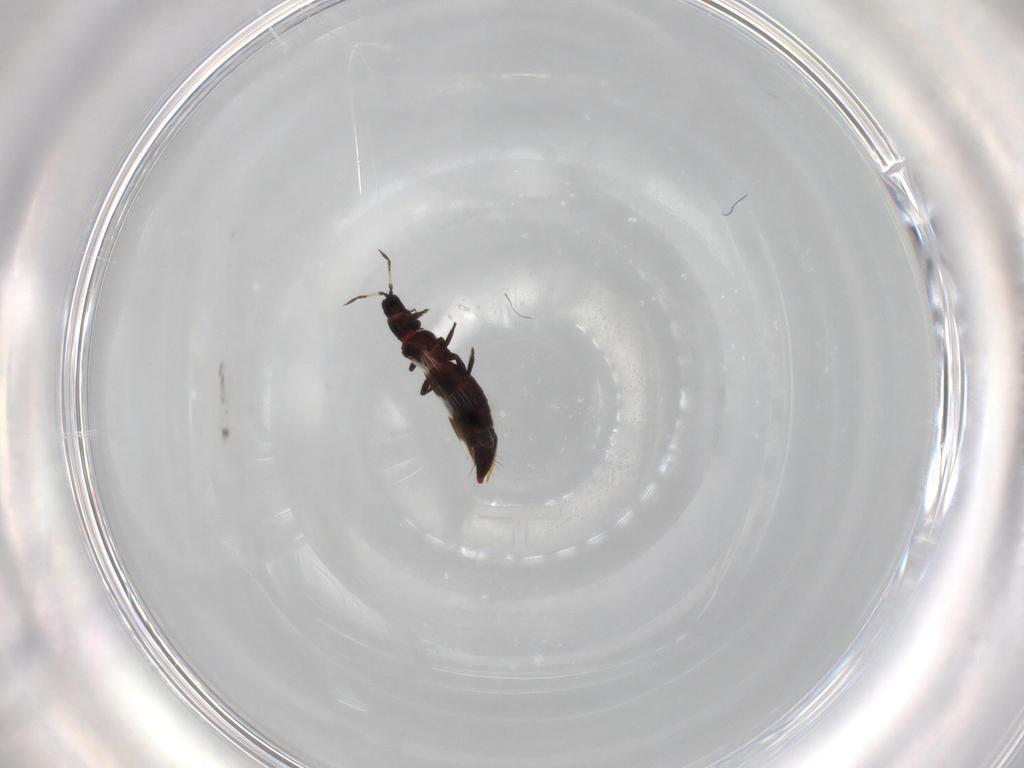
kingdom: Animalia
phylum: Arthropoda
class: Insecta
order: Thysanoptera
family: Aeolothripidae
